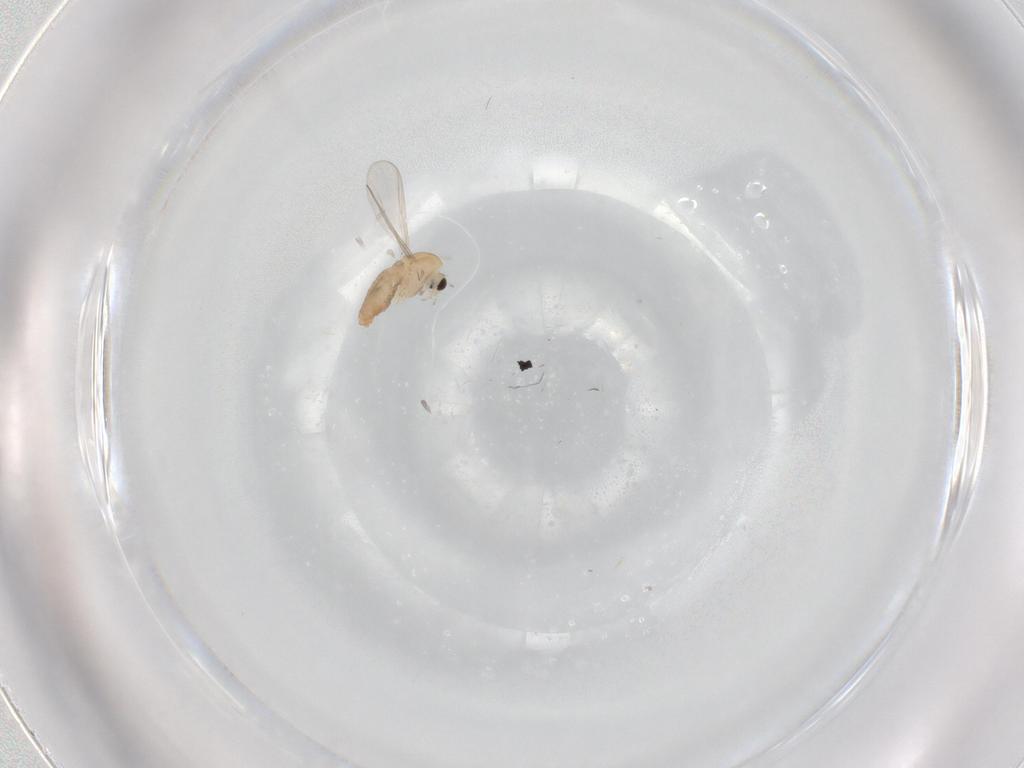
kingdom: Animalia
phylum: Arthropoda
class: Insecta
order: Diptera
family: Chironomidae
